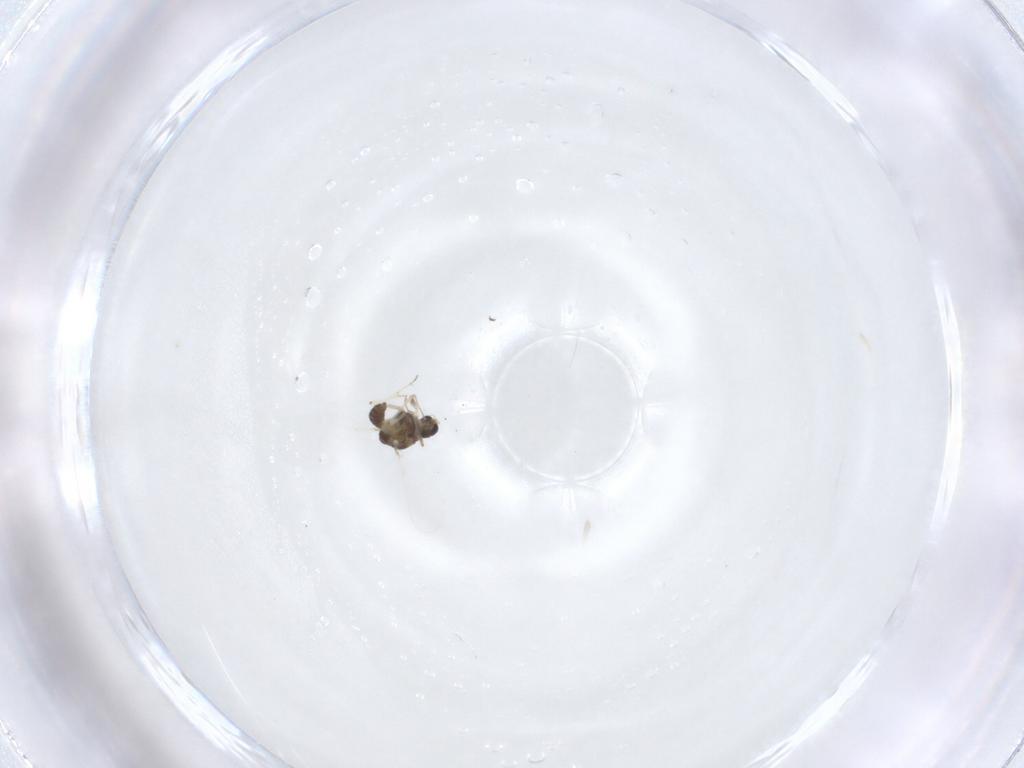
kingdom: Animalia
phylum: Arthropoda
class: Insecta
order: Diptera
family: Chironomidae
